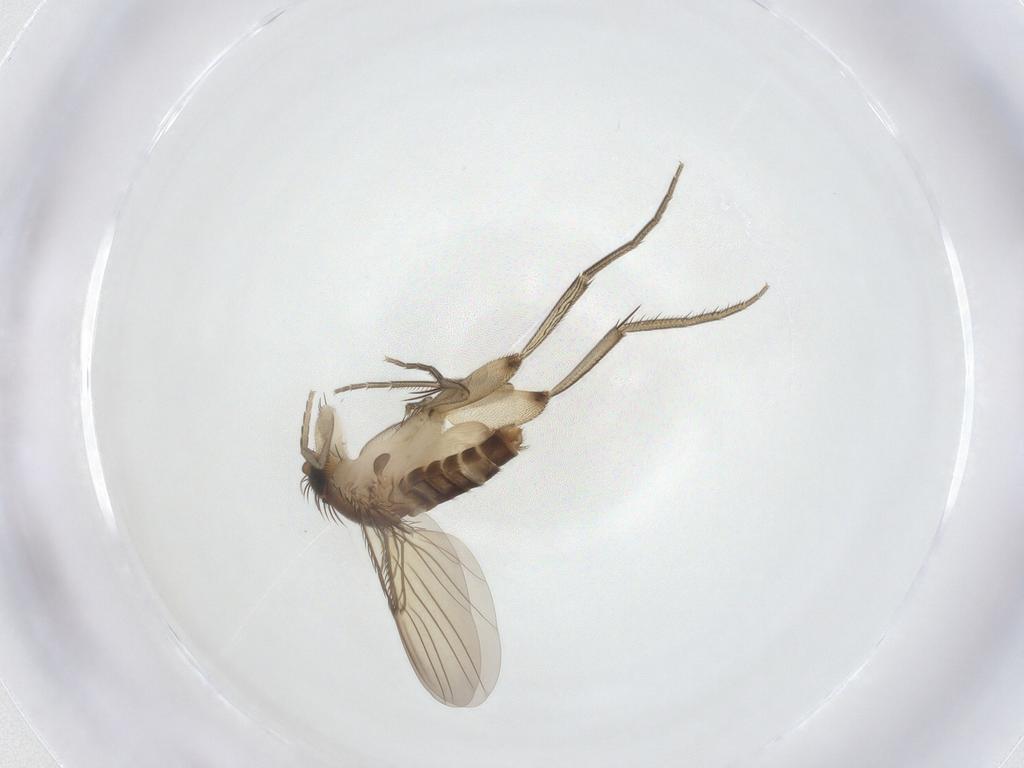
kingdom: Animalia
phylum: Arthropoda
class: Insecta
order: Diptera
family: Phoridae
